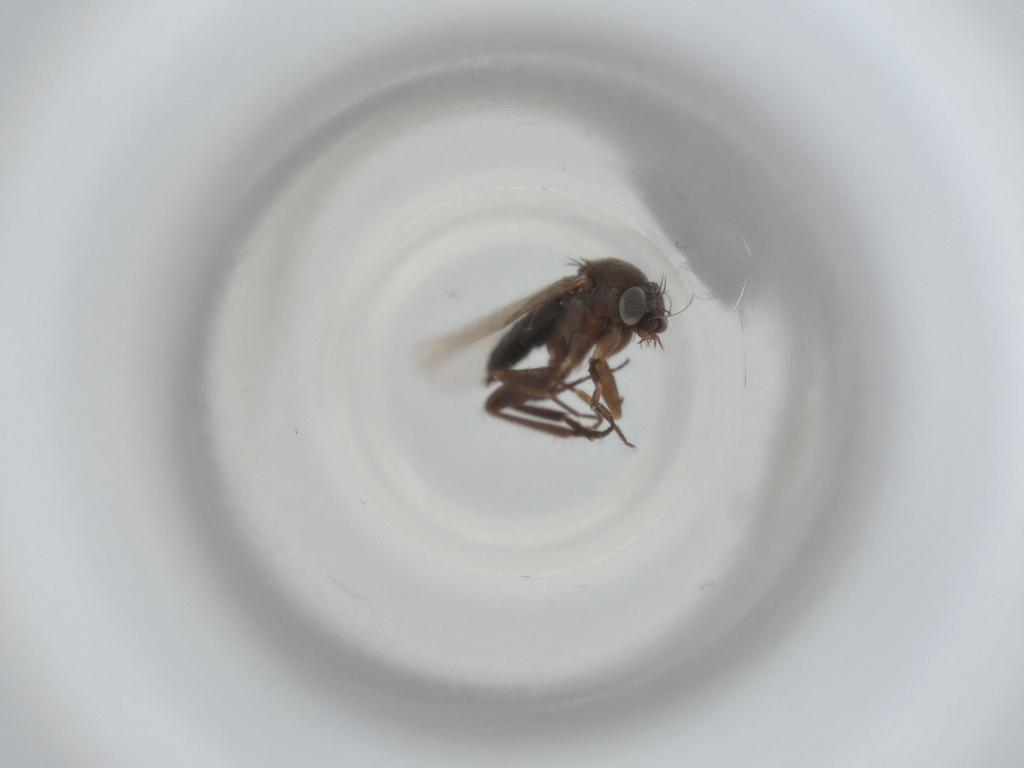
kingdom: Animalia
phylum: Arthropoda
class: Insecta
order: Diptera
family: Phoridae
